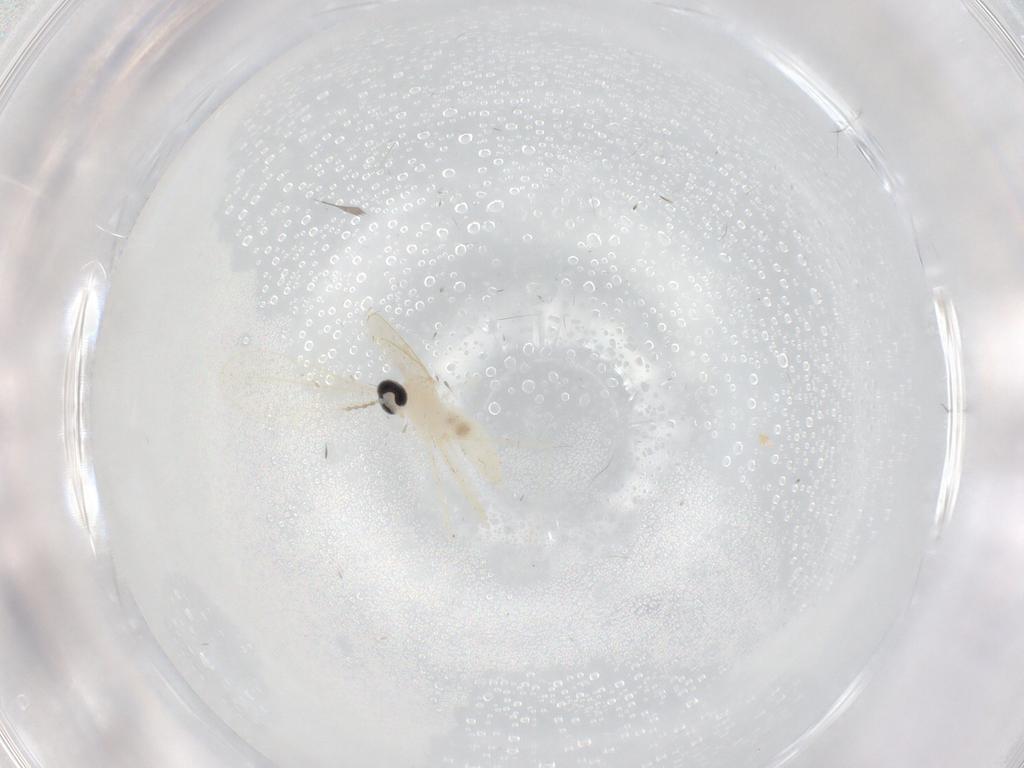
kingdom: Animalia
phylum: Arthropoda
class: Insecta
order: Diptera
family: Cecidomyiidae
